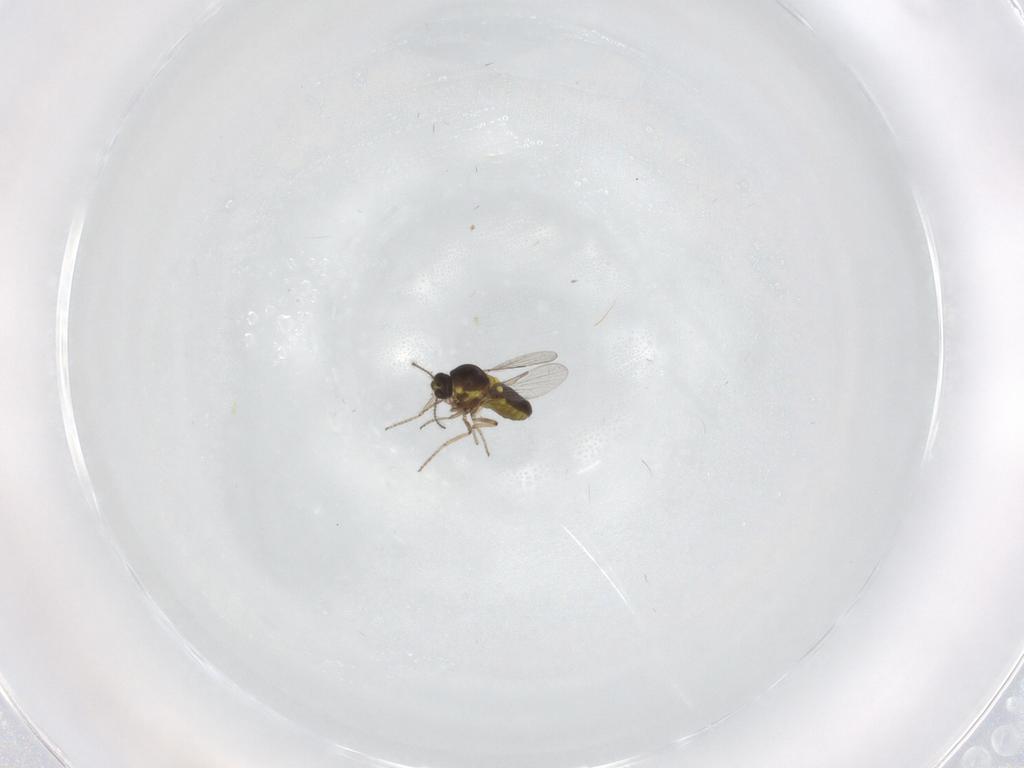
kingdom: Animalia
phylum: Arthropoda
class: Insecta
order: Diptera
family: Ceratopogonidae
